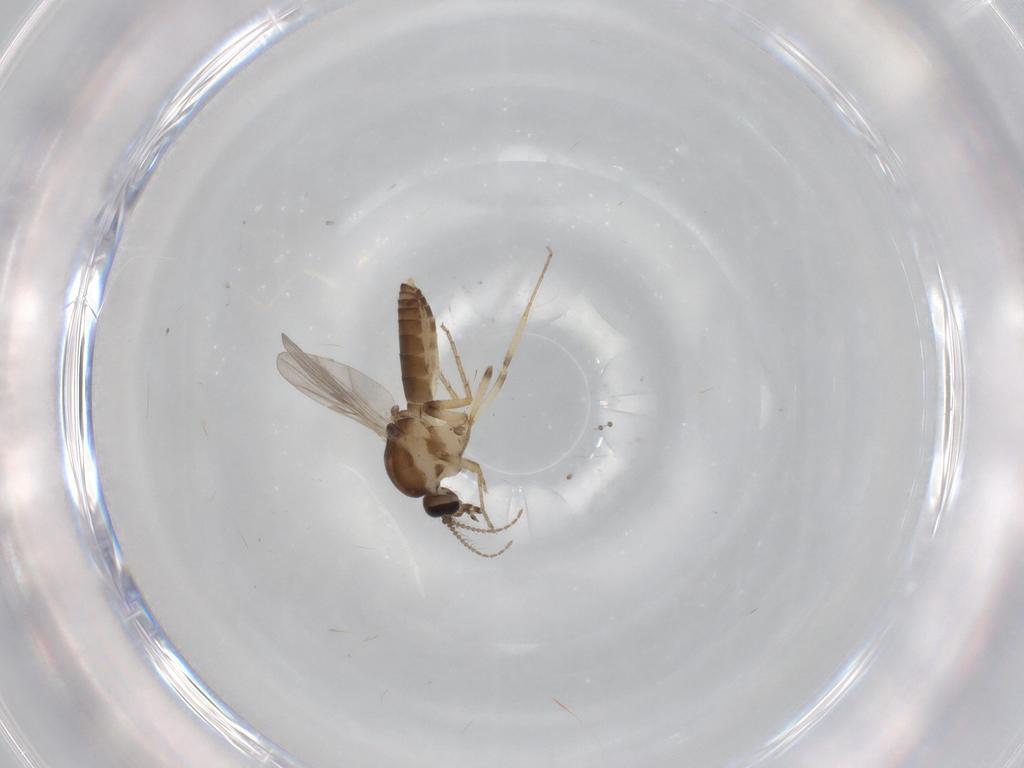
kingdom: Animalia
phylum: Arthropoda
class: Insecta
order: Diptera
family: Ceratopogonidae
